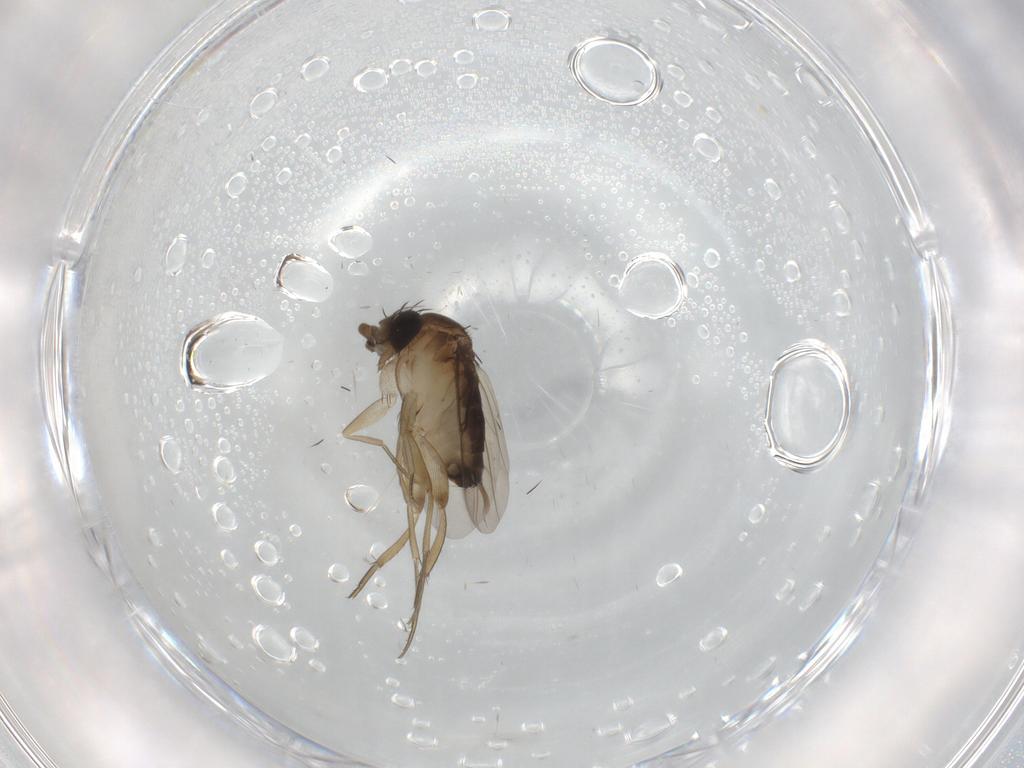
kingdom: Animalia
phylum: Arthropoda
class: Insecta
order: Diptera
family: Phoridae
